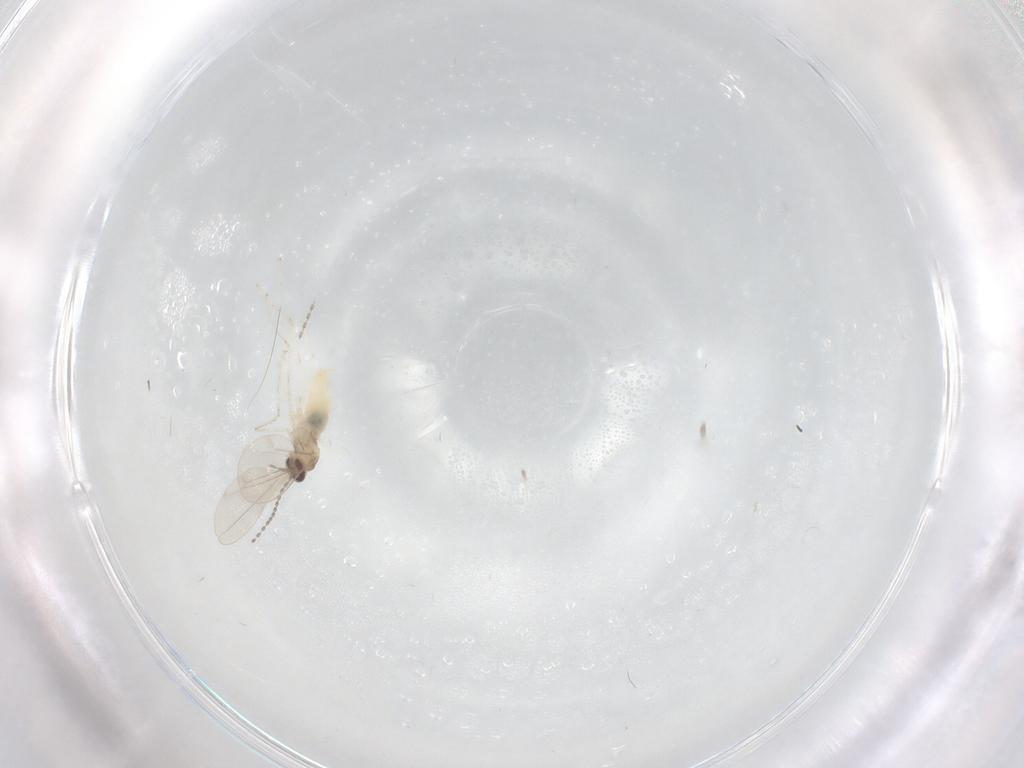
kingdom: Animalia
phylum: Arthropoda
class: Insecta
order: Diptera
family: Cecidomyiidae
